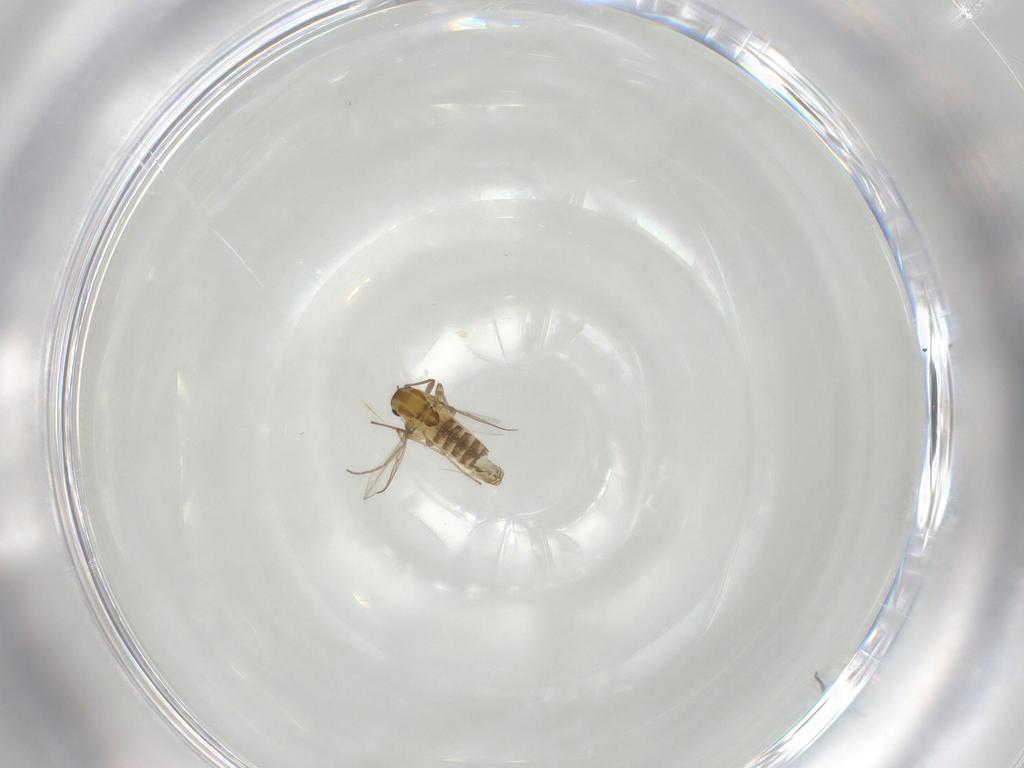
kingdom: Animalia
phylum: Arthropoda
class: Insecta
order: Diptera
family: Chironomidae
